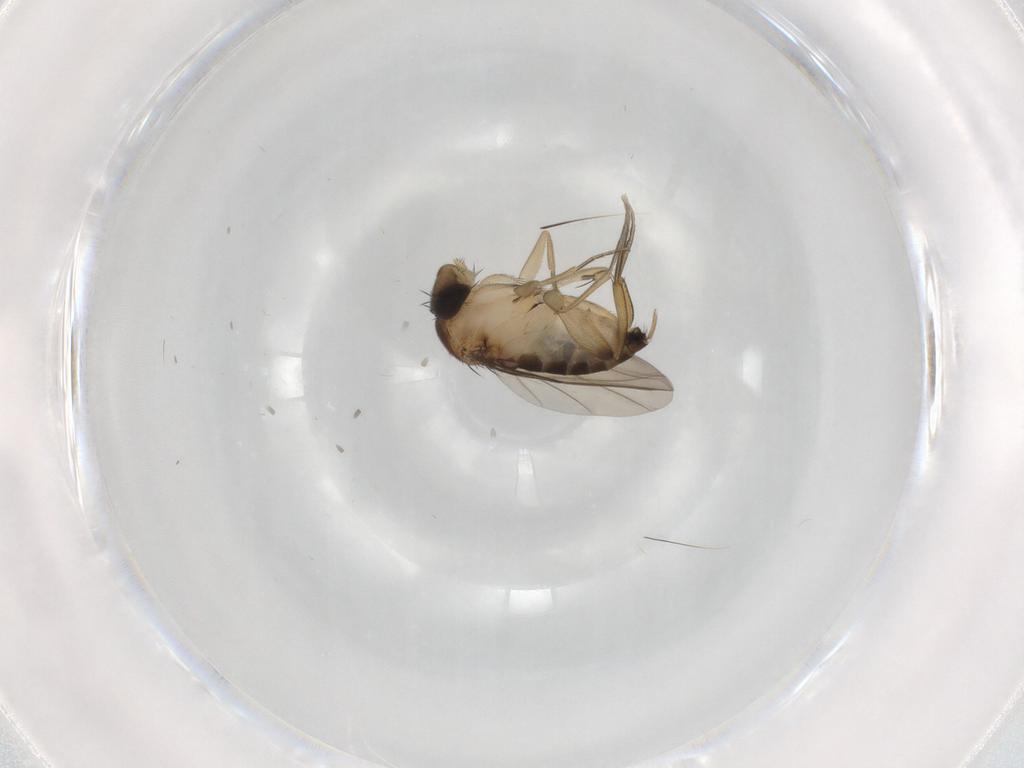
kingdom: Animalia
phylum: Arthropoda
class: Insecta
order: Diptera
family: Phoridae
